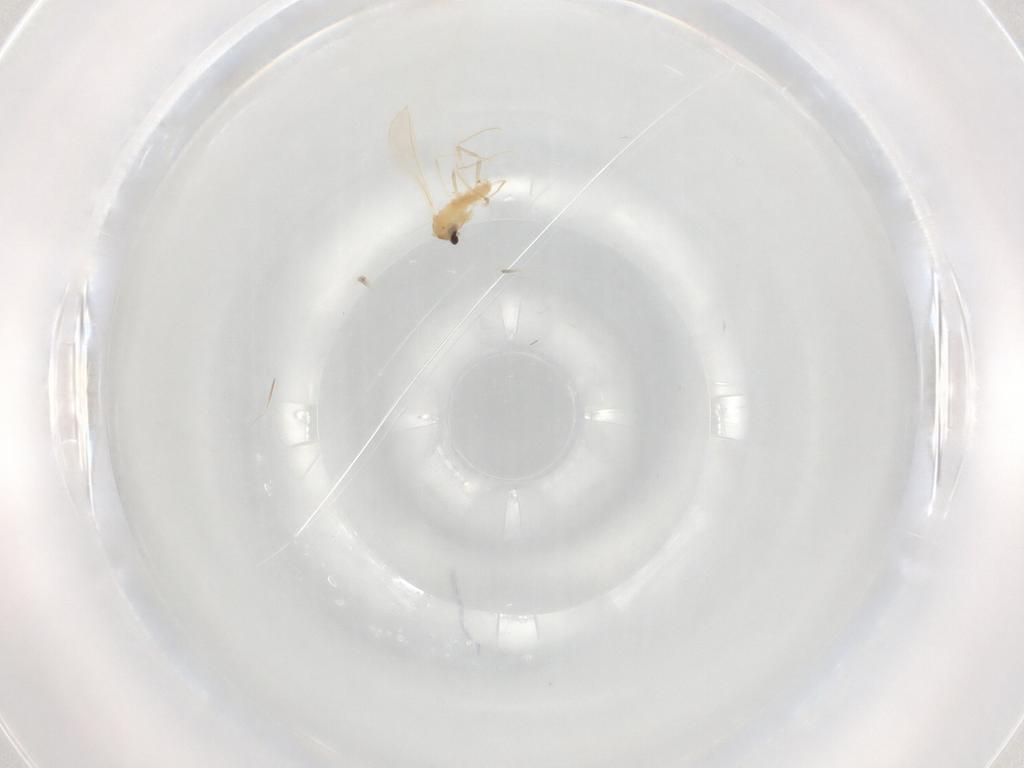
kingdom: Animalia
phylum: Arthropoda
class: Insecta
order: Diptera
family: Cecidomyiidae
